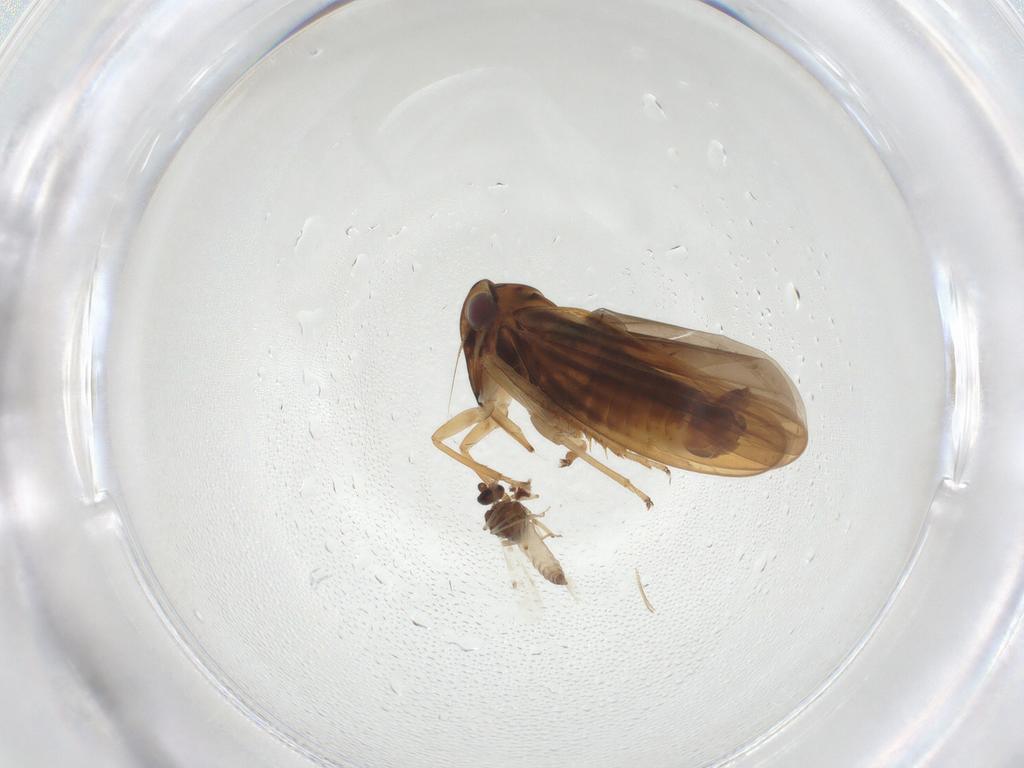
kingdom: Animalia
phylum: Arthropoda
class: Insecta
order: Hemiptera
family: Cicadellidae
